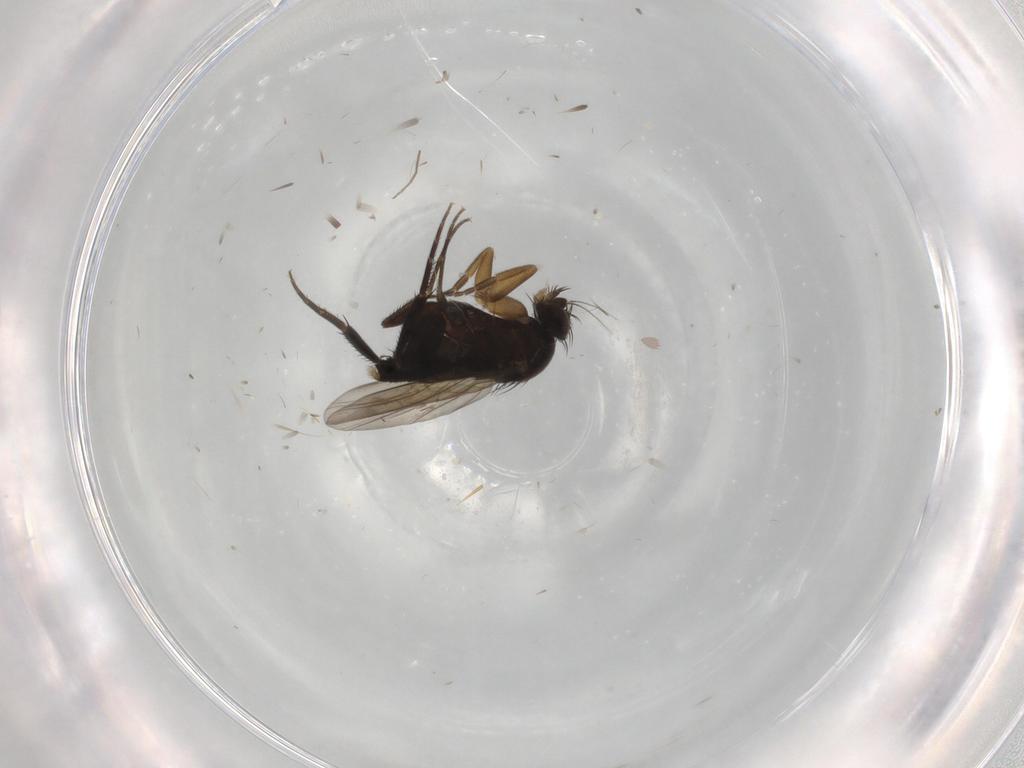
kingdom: Animalia
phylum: Arthropoda
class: Insecta
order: Diptera
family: Phoridae
